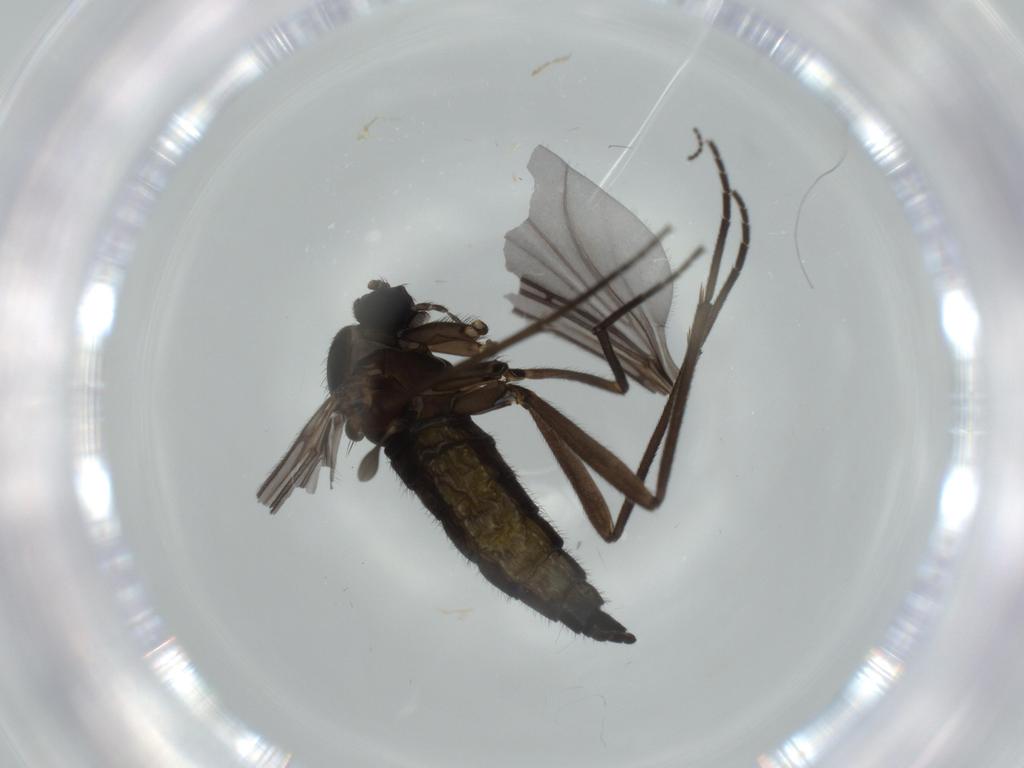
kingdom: Animalia
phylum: Arthropoda
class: Insecta
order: Diptera
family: Sciaridae
